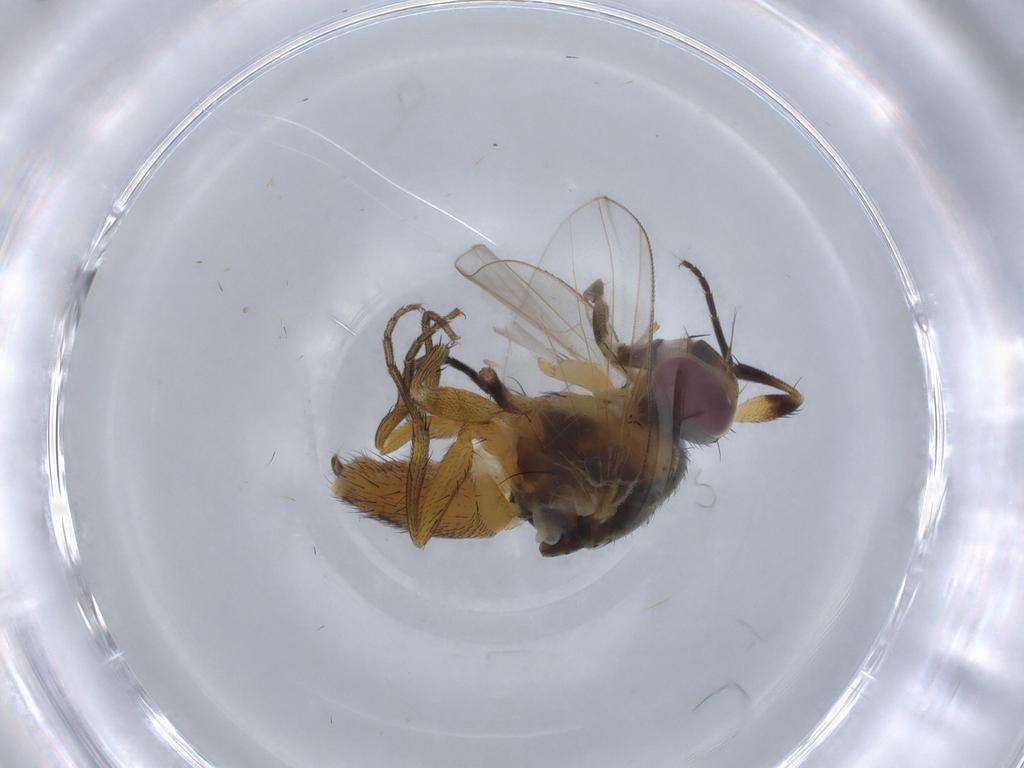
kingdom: Animalia
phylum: Arthropoda
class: Insecta
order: Diptera
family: Muscidae
